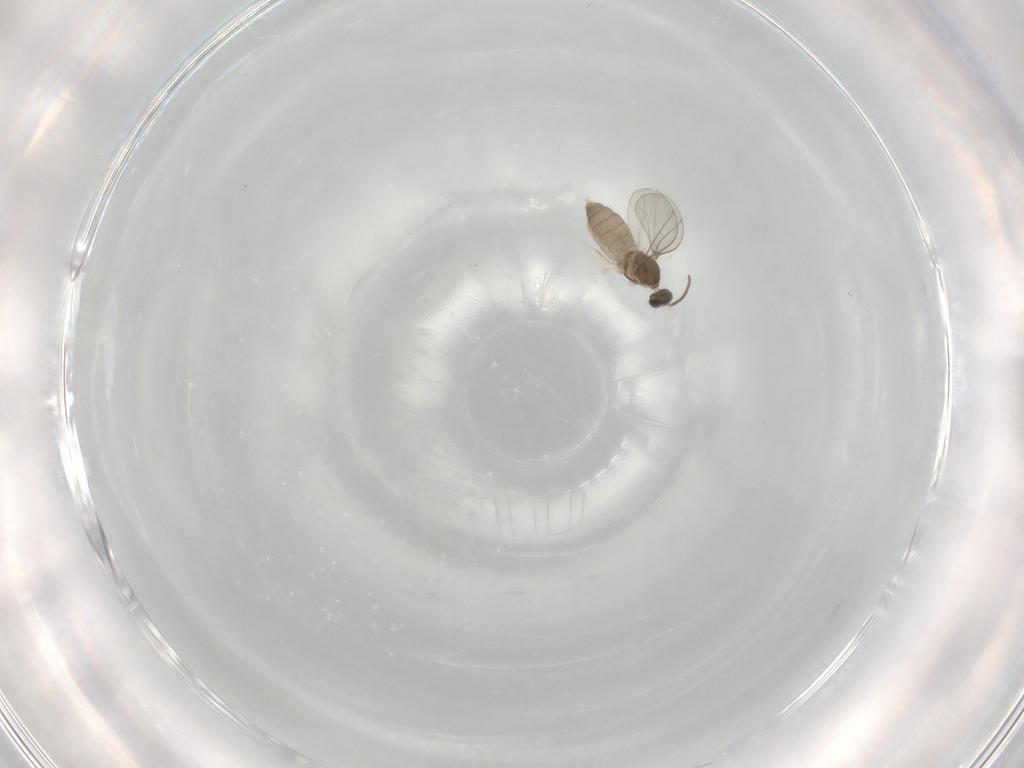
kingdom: Animalia
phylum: Arthropoda
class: Insecta
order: Diptera
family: Cecidomyiidae
